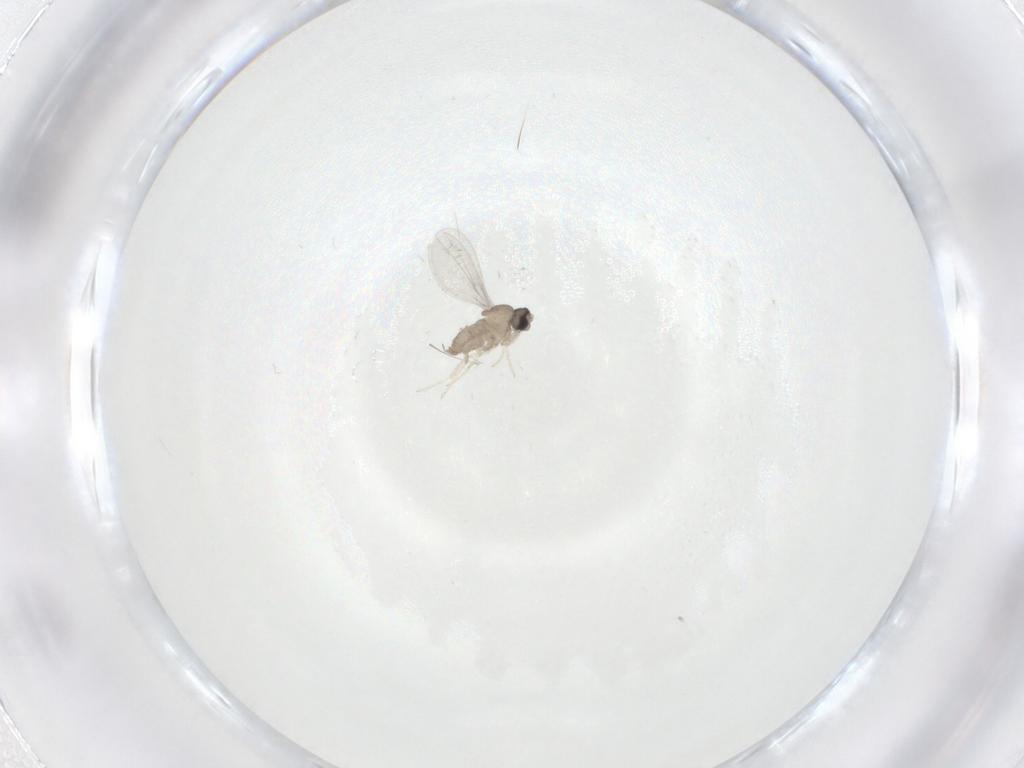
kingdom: Animalia
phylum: Arthropoda
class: Insecta
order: Diptera
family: Cecidomyiidae
